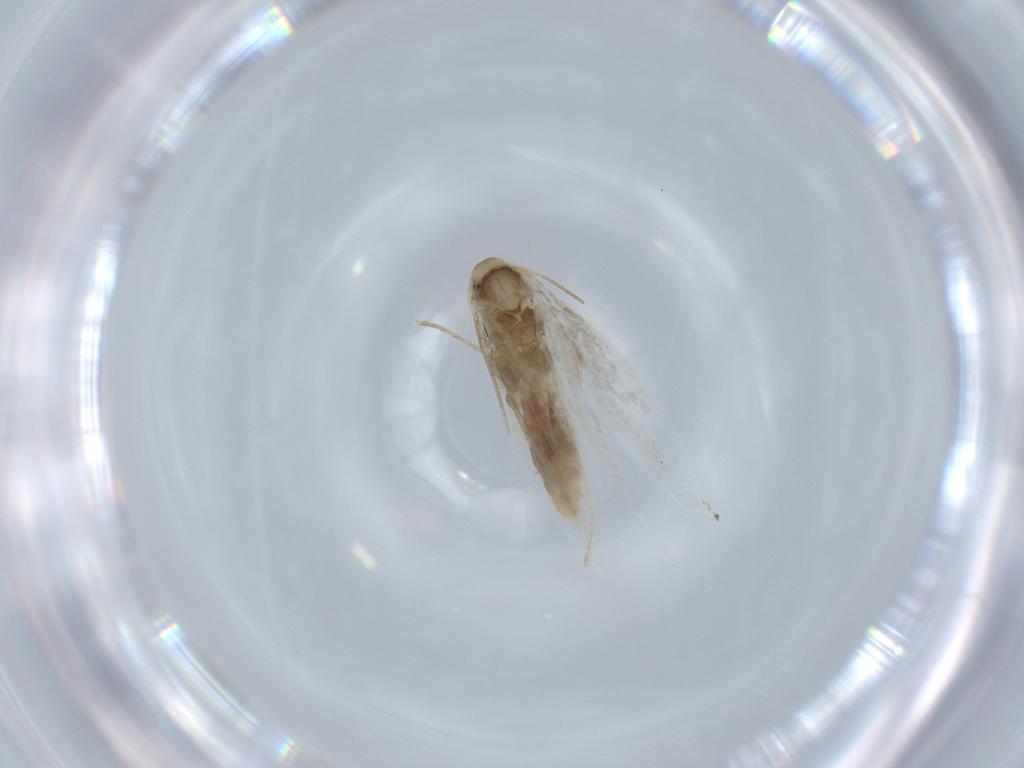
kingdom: Animalia
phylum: Arthropoda
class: Insecta
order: Lepidoptera
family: Gracillariidae
